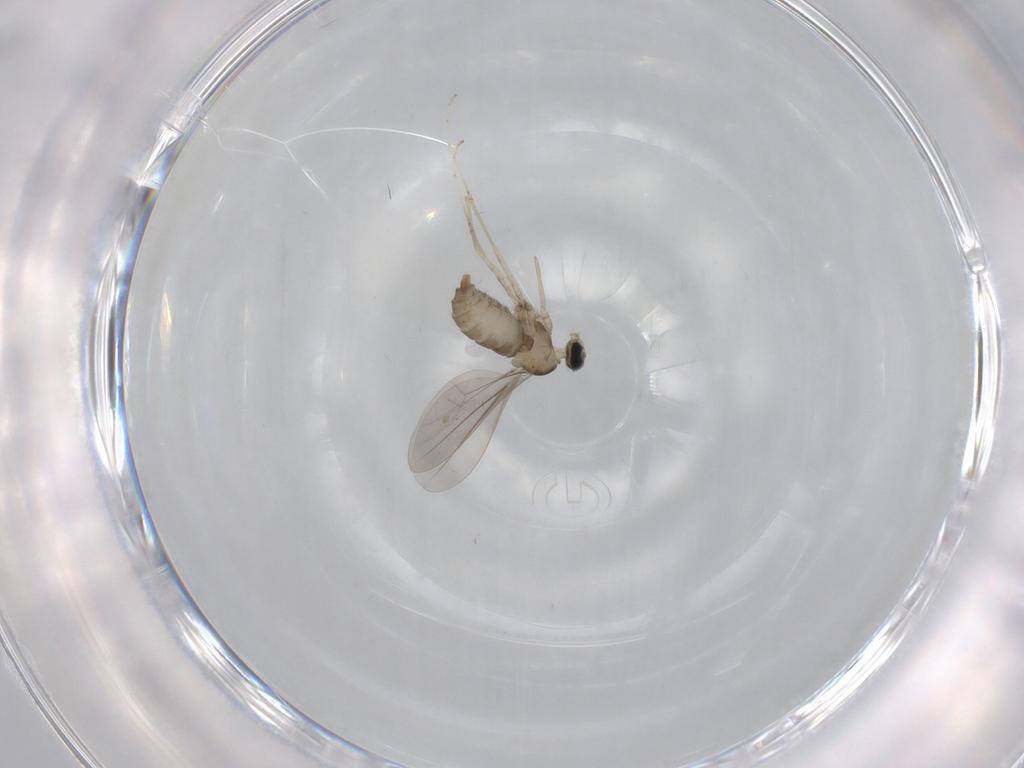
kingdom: Animalia
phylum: Arthropoda
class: Insecta
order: Diptera
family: Cecidomyiidae
